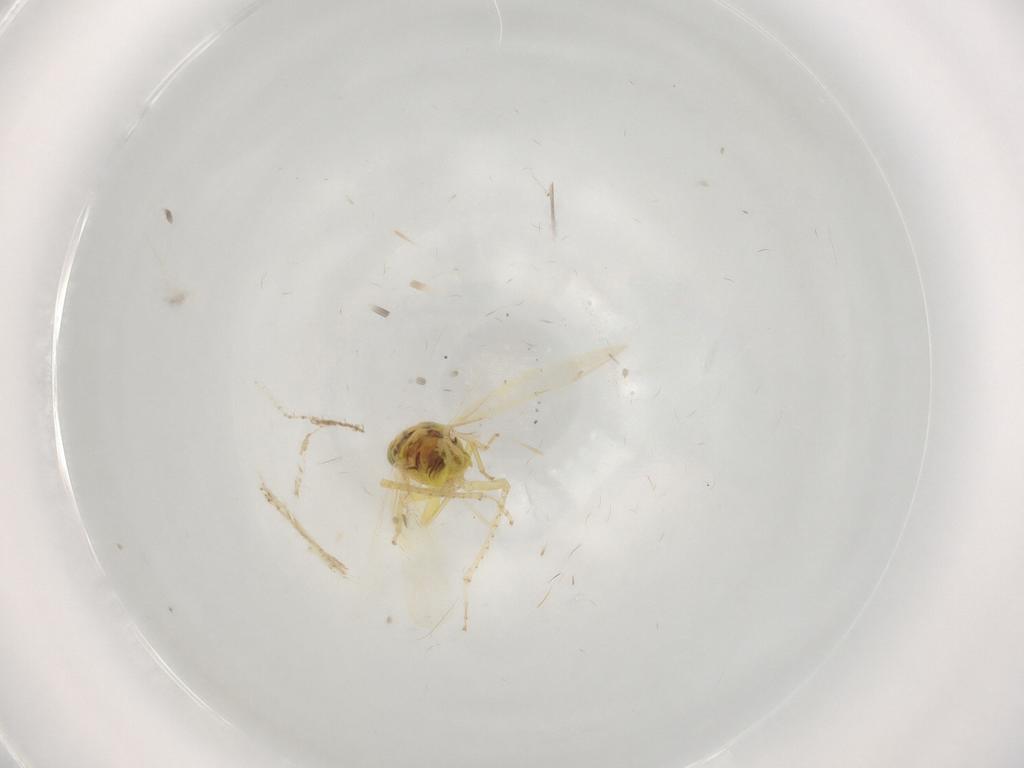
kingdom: Animalia
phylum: Arthropoda
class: Insecta
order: Hemiptera
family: Cicadellidae
